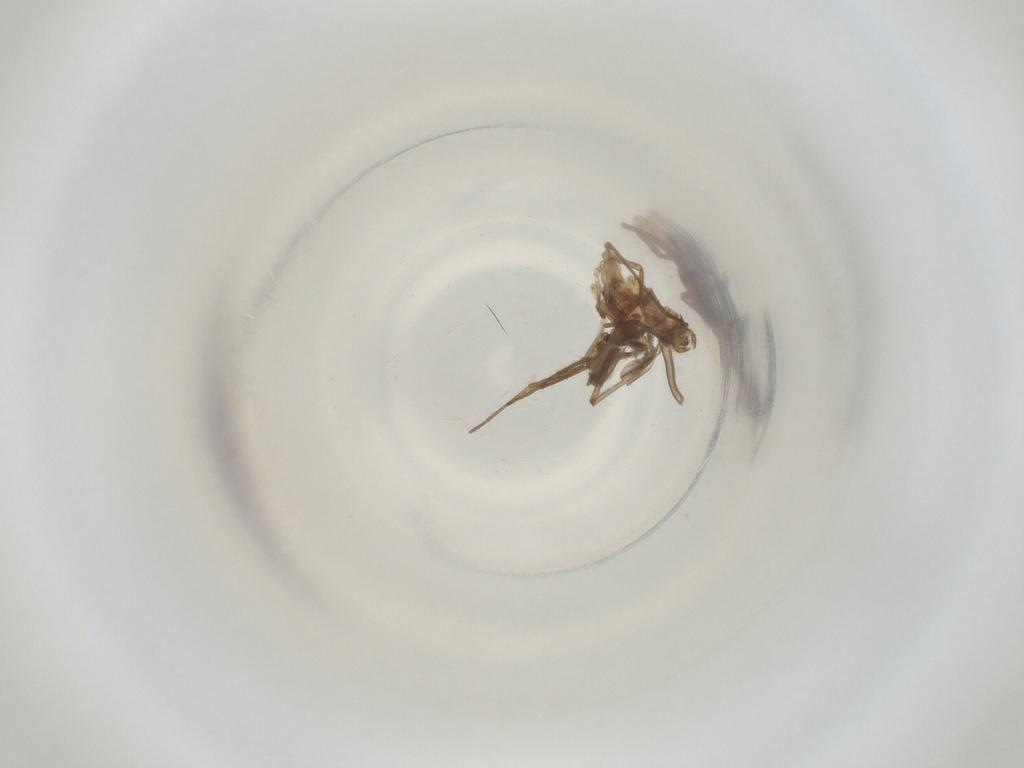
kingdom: Animalia
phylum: Arthropoda
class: Insecta
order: Diptera
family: Cecidomyiidae
